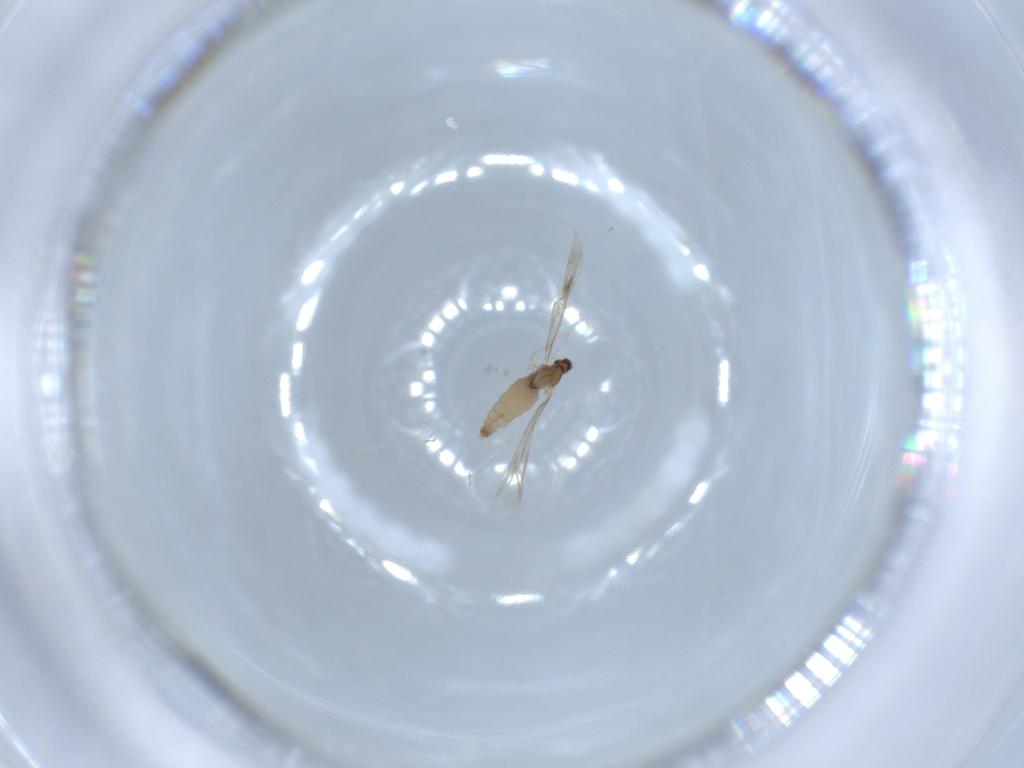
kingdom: Animalia
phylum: Arthropoda
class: Insecta
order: Diptera
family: Cecidomyiidae
